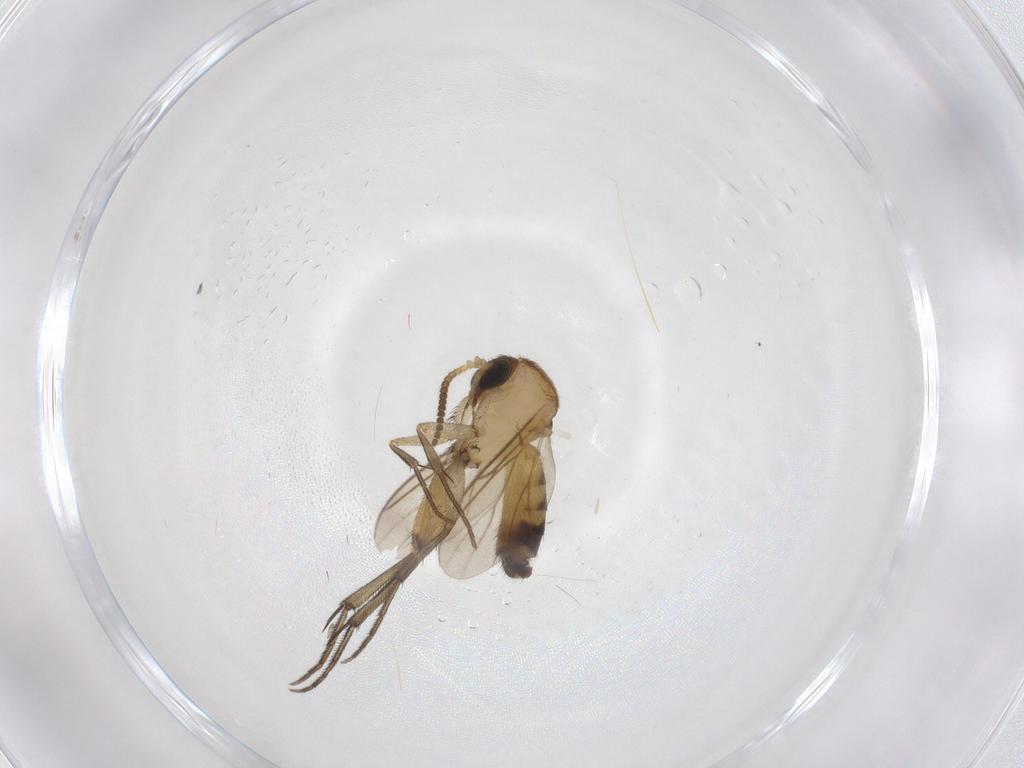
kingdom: Animalia
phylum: Arthropoda
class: Insecta
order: Diptera
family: Mycetophilidae
